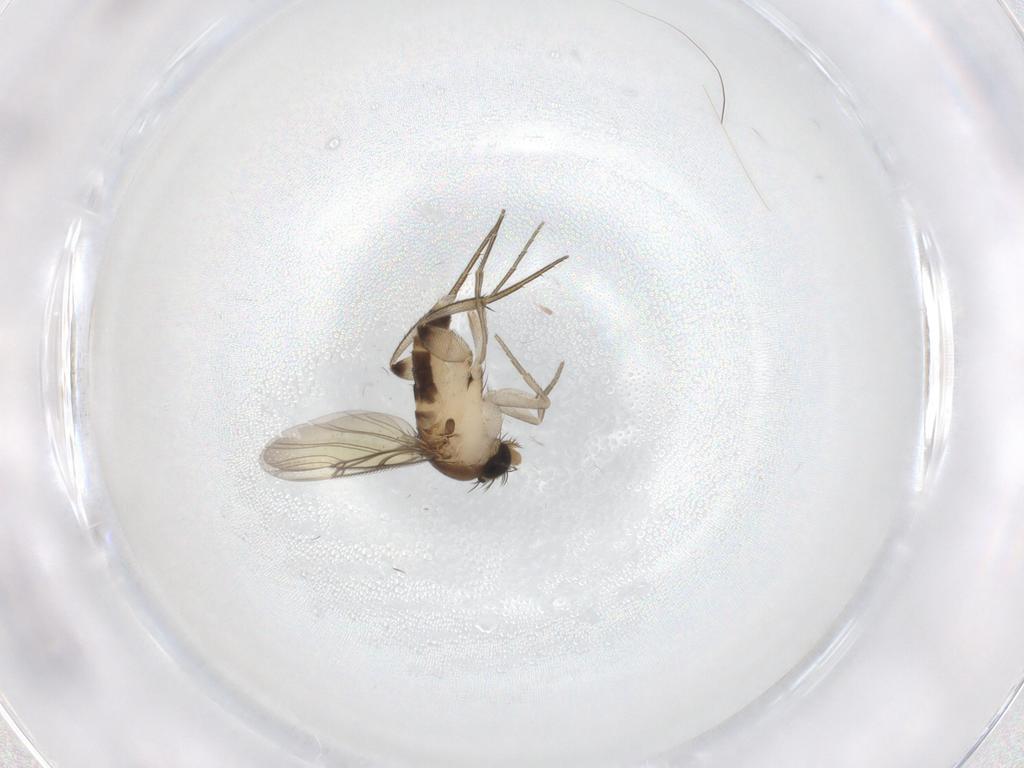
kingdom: Animalia
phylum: Arthropoda
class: Insecta
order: Diptera
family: Phoridae
